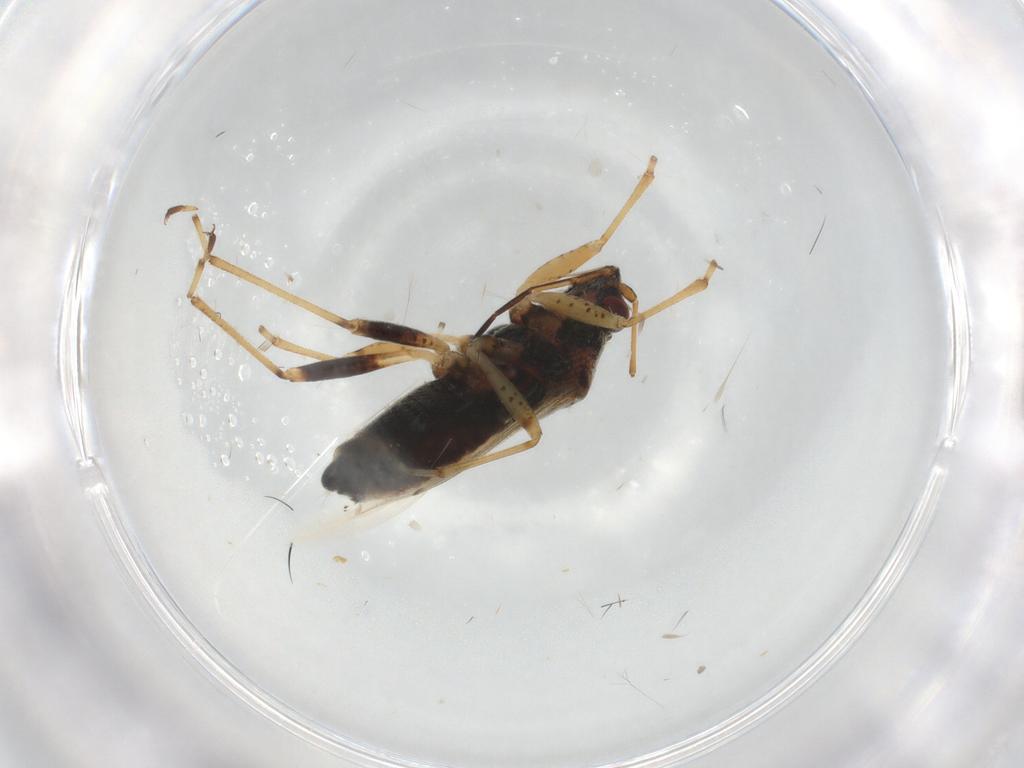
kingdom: Animalia
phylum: Arthropoda
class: Insecta
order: Hemiptera
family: Lygaeidae
